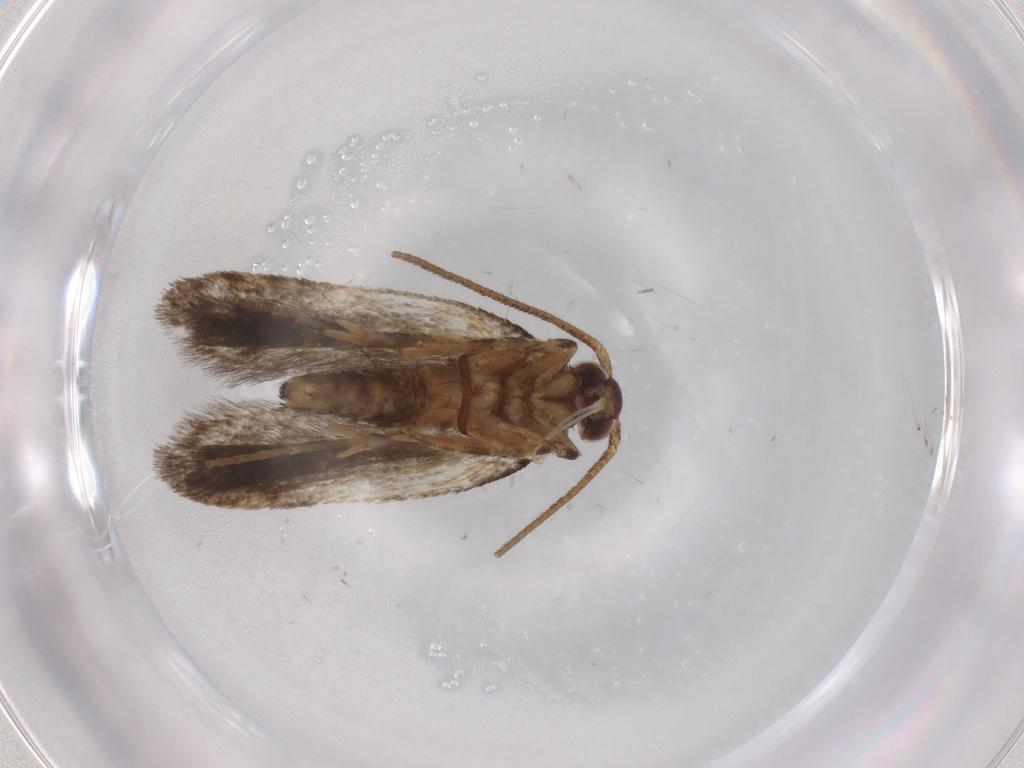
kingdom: Animalia
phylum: Arthropoda
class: Insecta
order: Lepidoptera
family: Autostichidae
